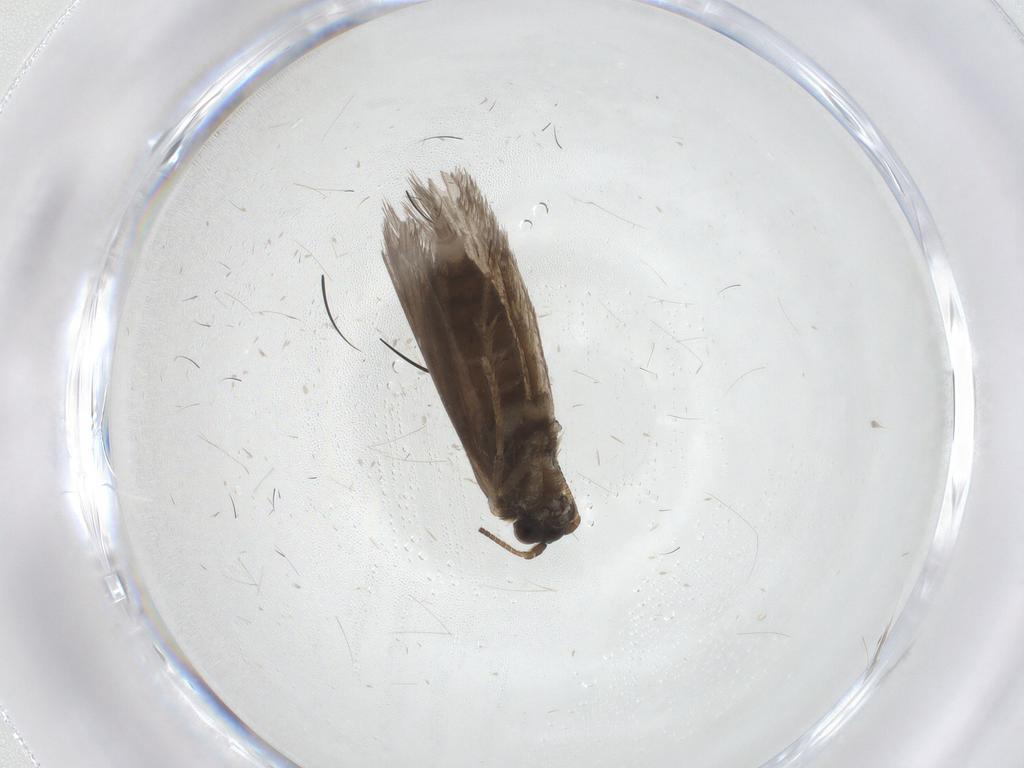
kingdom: Animalia
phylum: Arthropoda
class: Insecta
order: Lepidoptera
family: Micropterigidae
